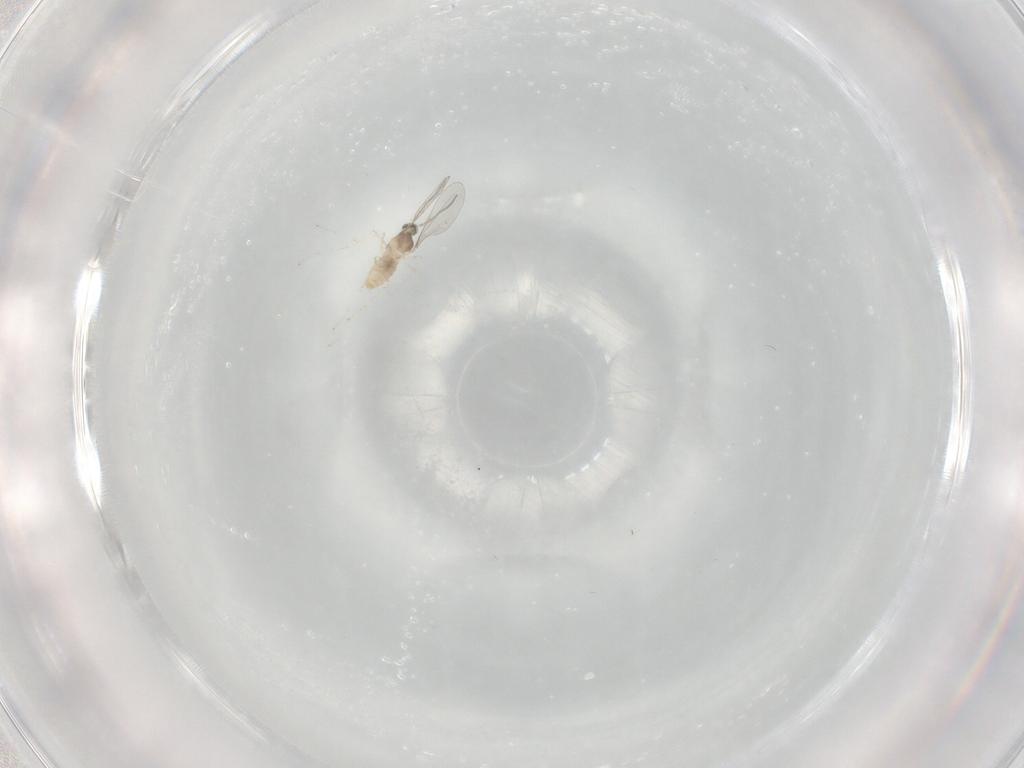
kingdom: Animalia
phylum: Arthropoda
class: Insecta
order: Diptera
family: Cecidomyiidae
